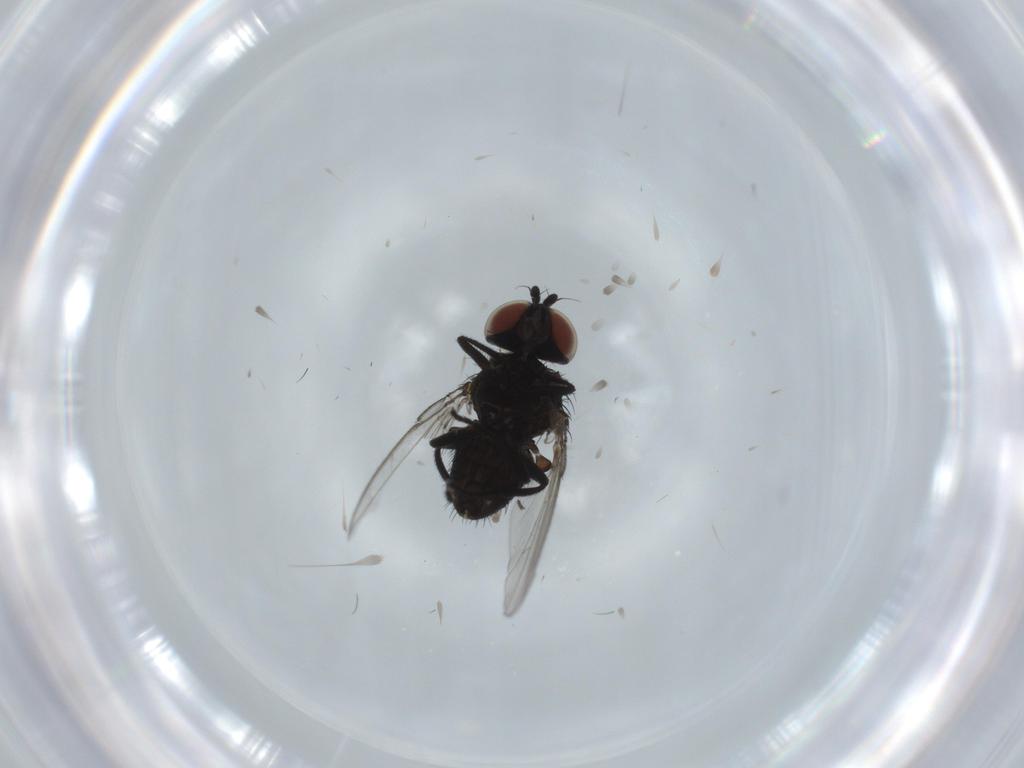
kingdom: Animalia
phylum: Arthropoda
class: Insecta
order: Diptera
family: Milichiidae
